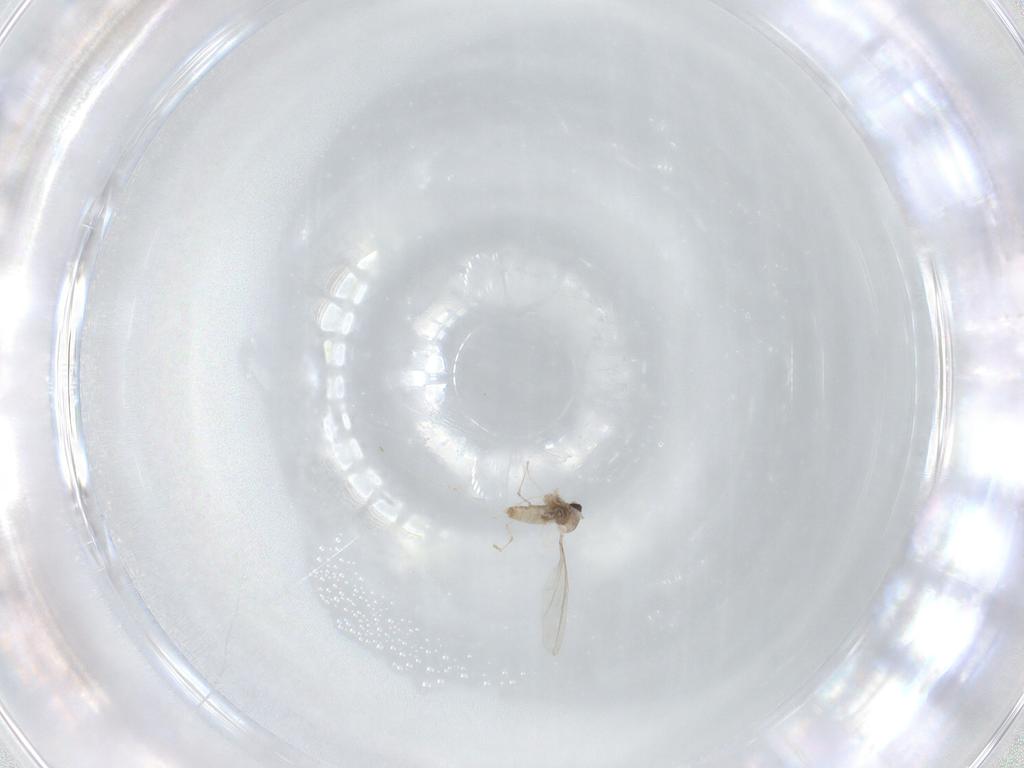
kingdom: Animalia
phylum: Arthropoda
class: Insecta
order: Diptera
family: Cecidomyiidae
